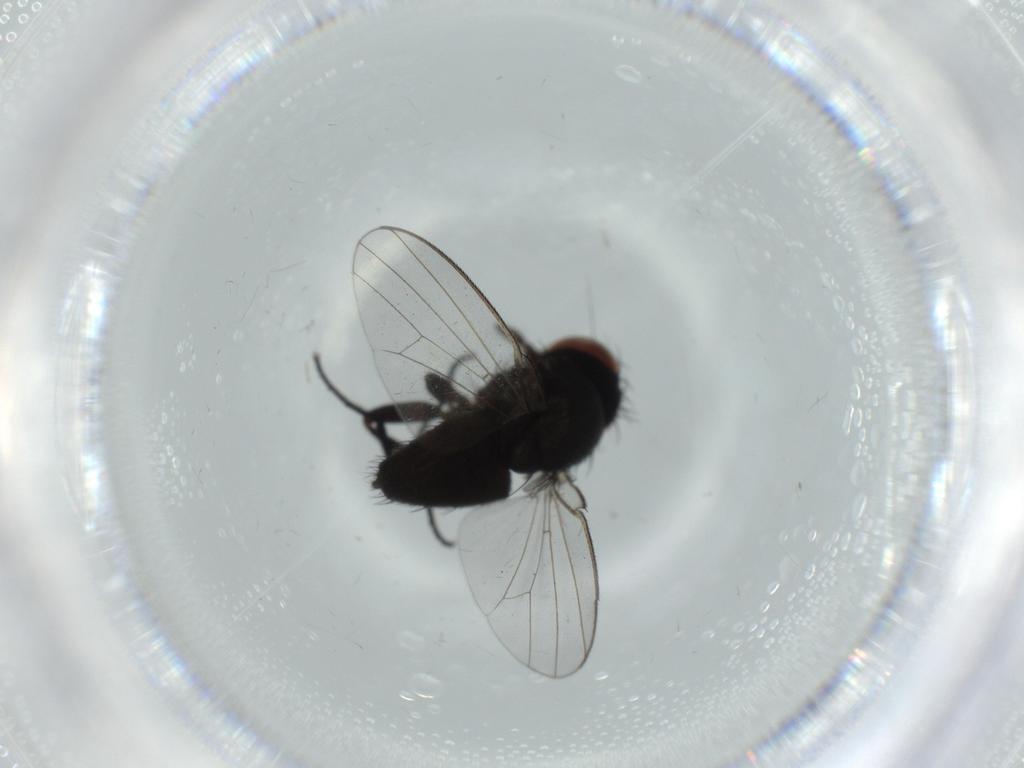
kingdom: Animalia
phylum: Arthropoda
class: Insecta
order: Diptera
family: Milichiidae
